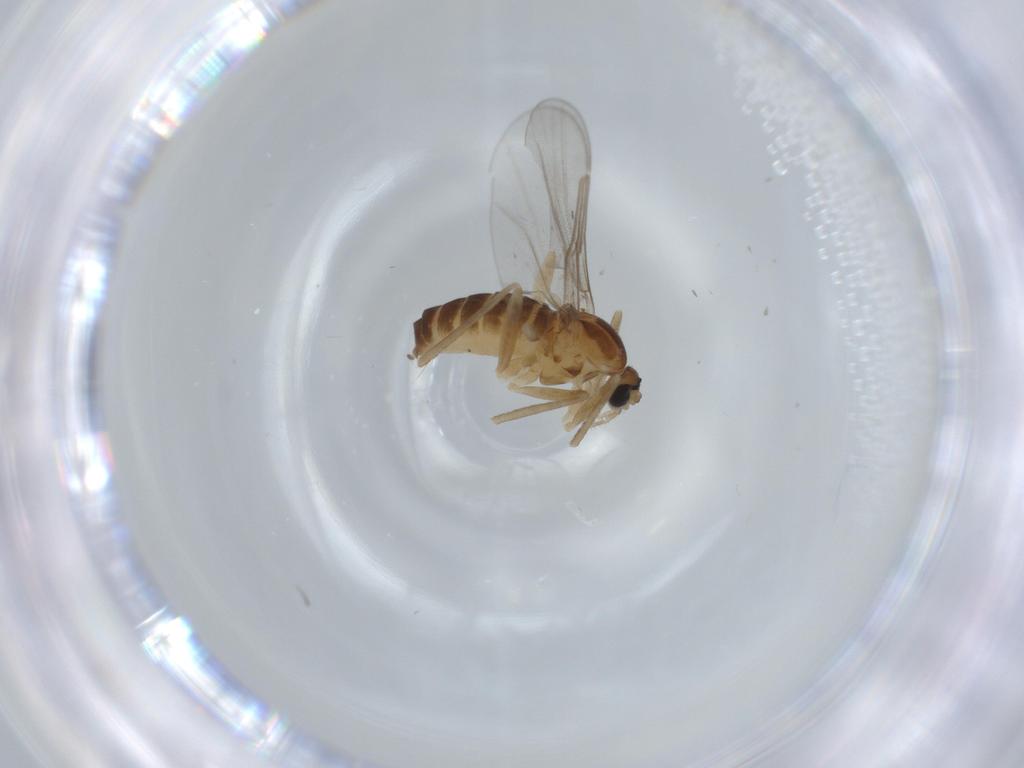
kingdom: Animalia
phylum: Arthropoda
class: Insecta
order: Diptera
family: Cecidomyiidae
